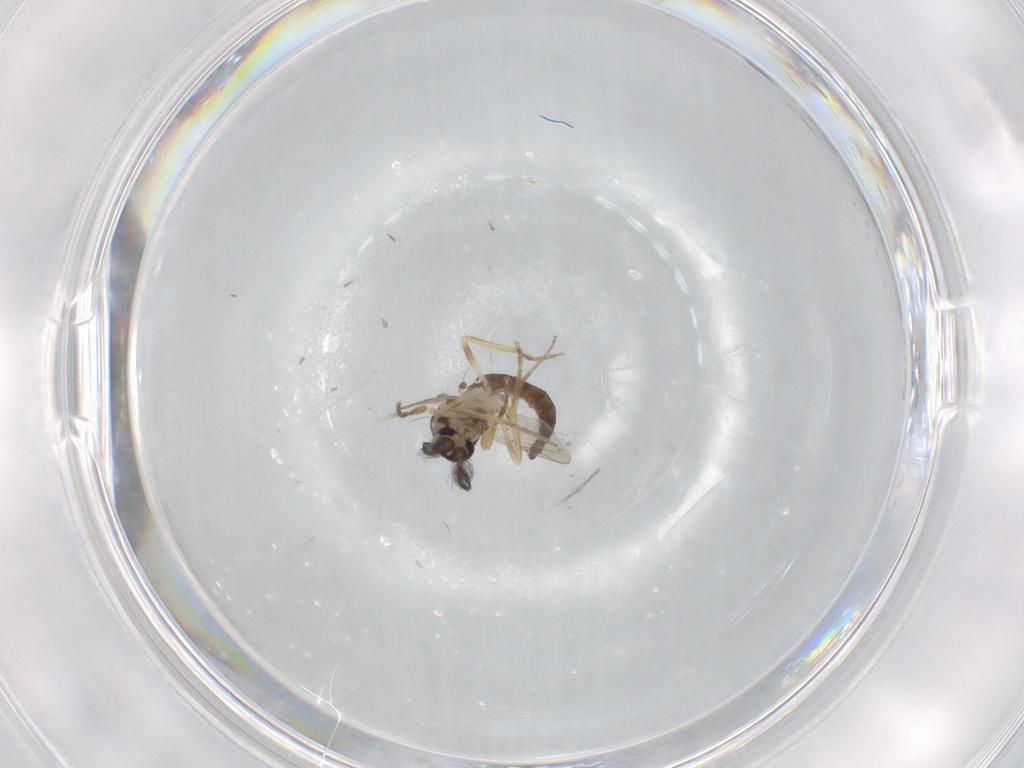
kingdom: Animalia
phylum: Arthropoda
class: Insecta
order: Diptera
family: Ceratopogonidae
